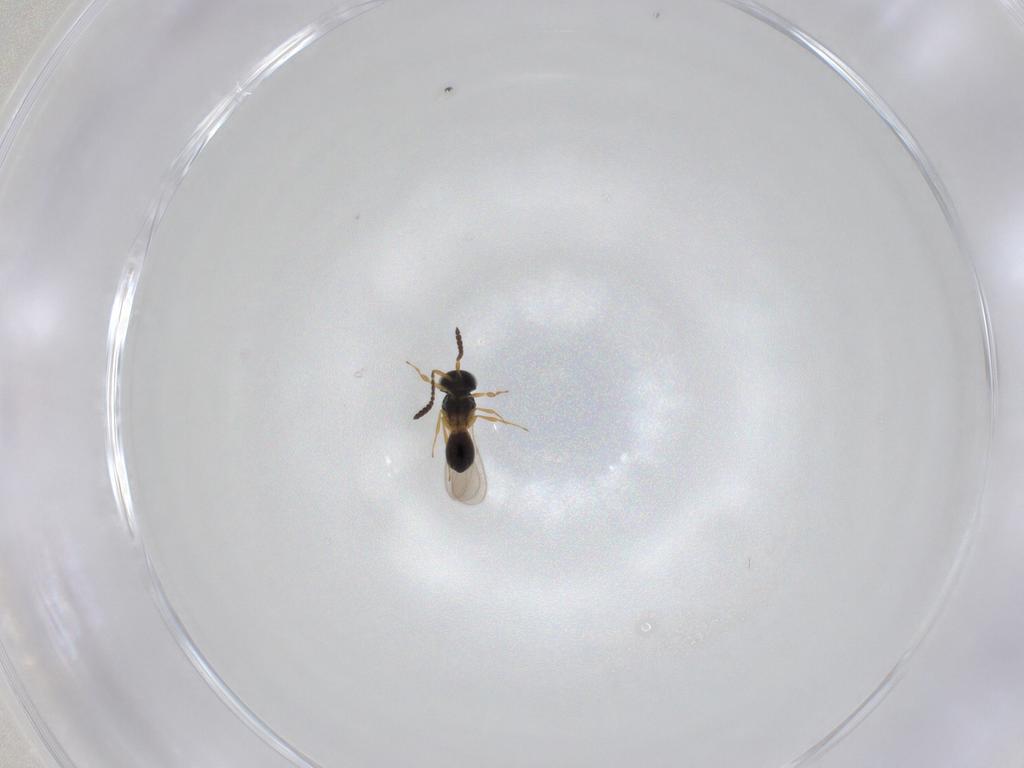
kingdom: Animalia
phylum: Arthropoda
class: Insecta
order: Hymenoptera
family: Scelionidae
